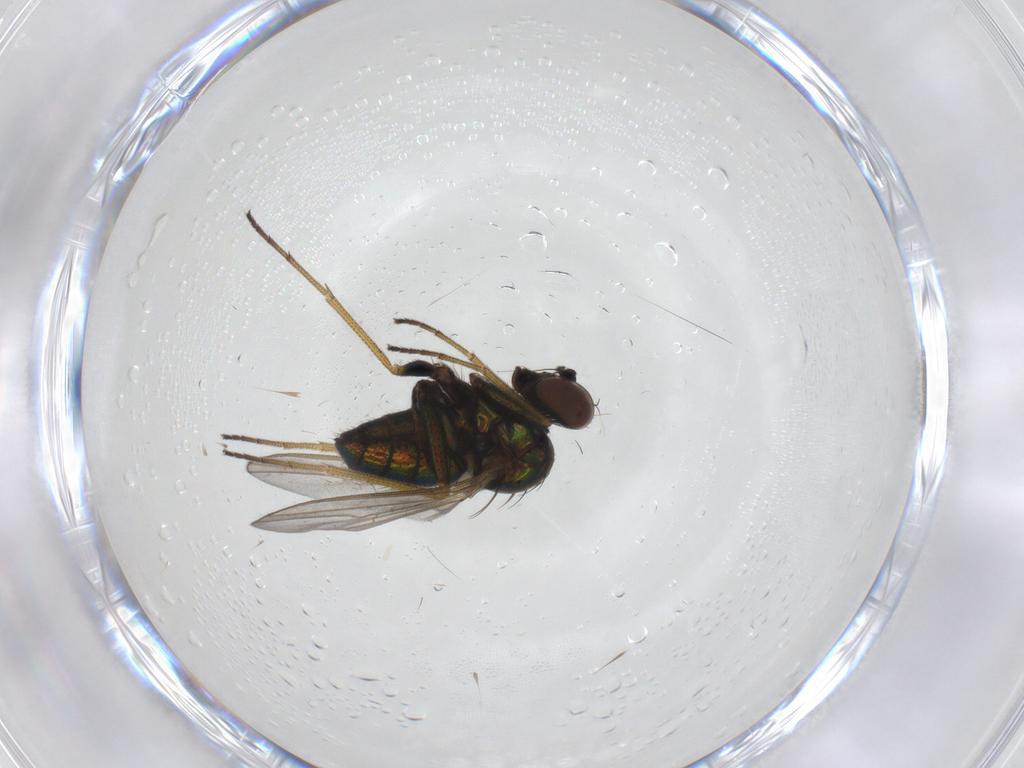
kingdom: Animalia
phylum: Arthropoda
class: Insecta
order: Diptera
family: Dolichopodidae
